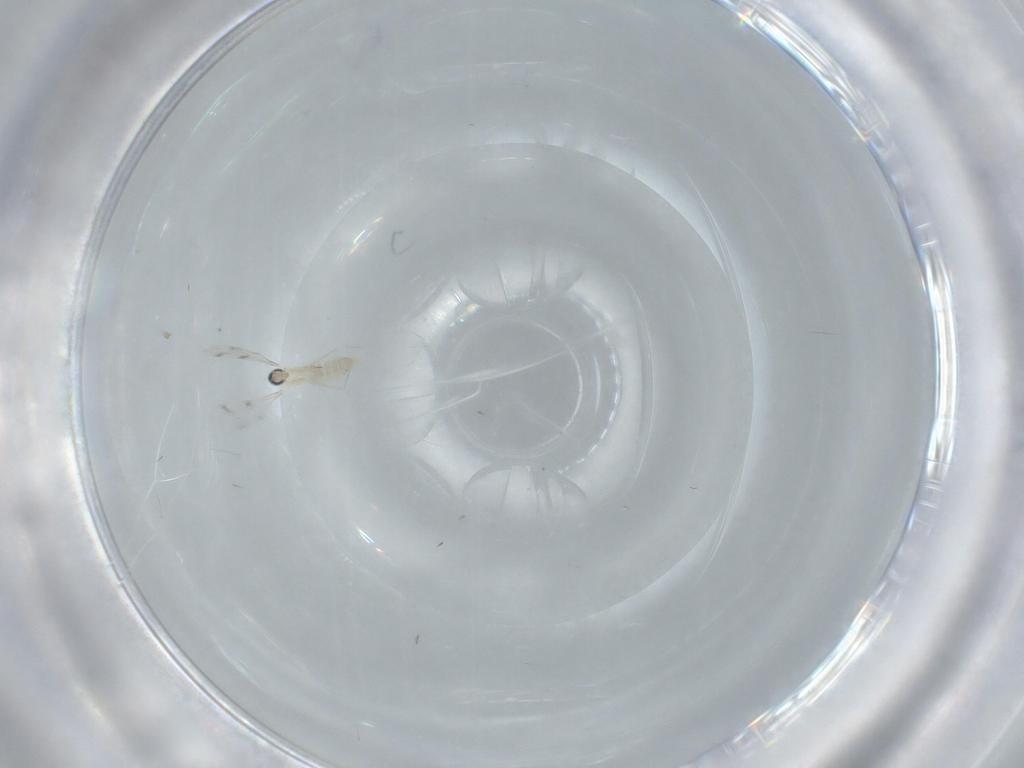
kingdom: Animalia
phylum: Arthropoda
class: Insecta
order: Diptera
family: Cecidomyiidae
